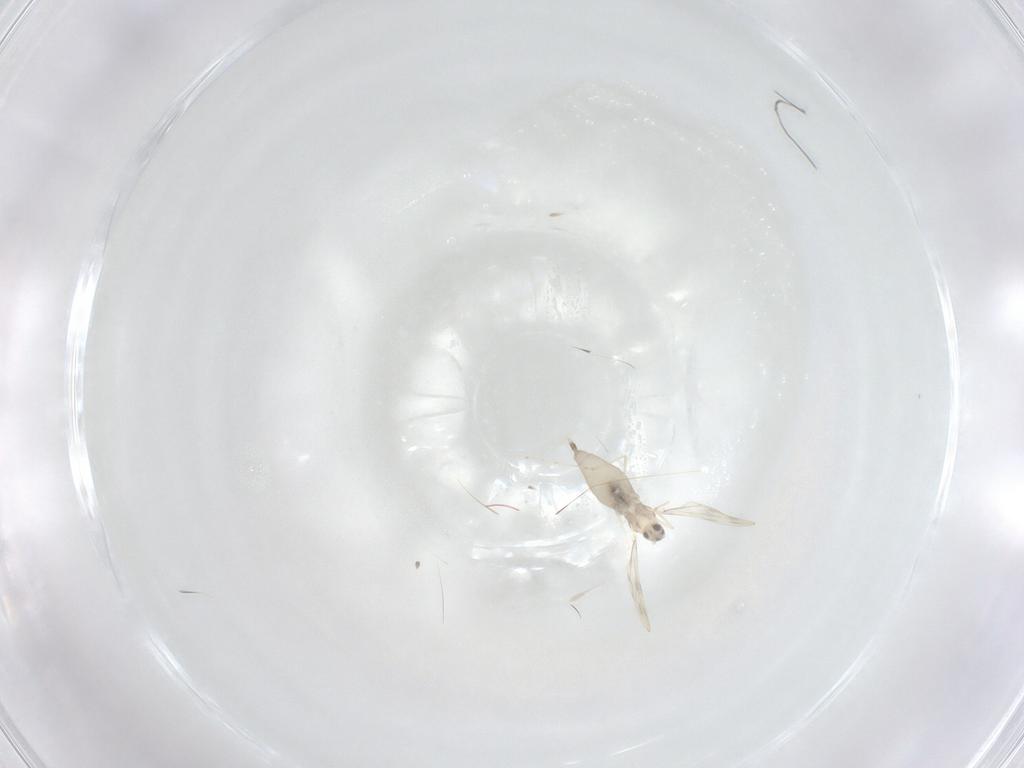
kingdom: Animalia
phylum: Arthropoda
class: Insecta
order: Diptera
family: Cecidomyiidae
